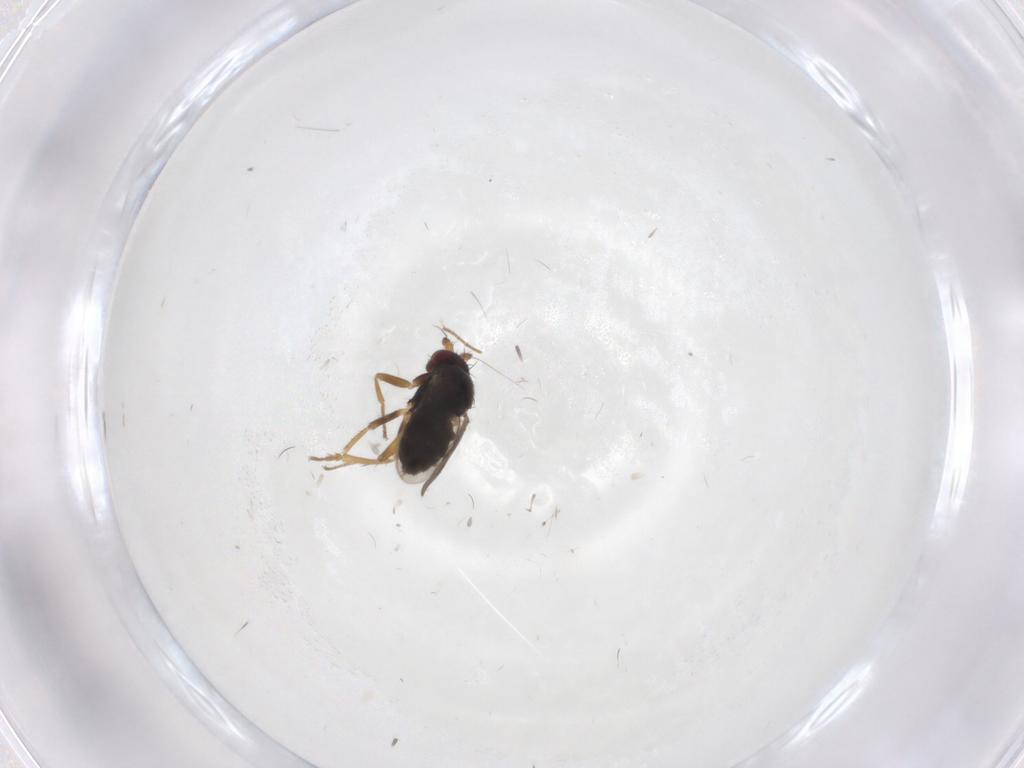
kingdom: Animalia
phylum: Arthropoda
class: Insecta
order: Diptera
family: Sphaeroceridae
